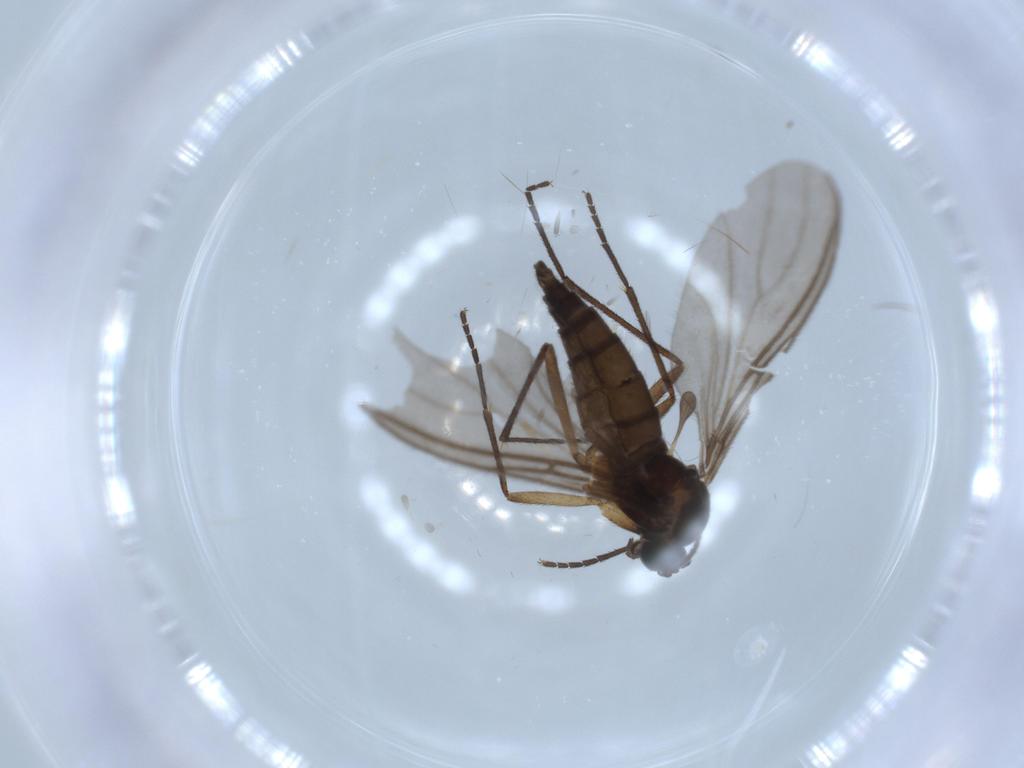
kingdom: Animalia
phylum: Arthropoda
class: Insecta
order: Diptera
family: Sciaridae
